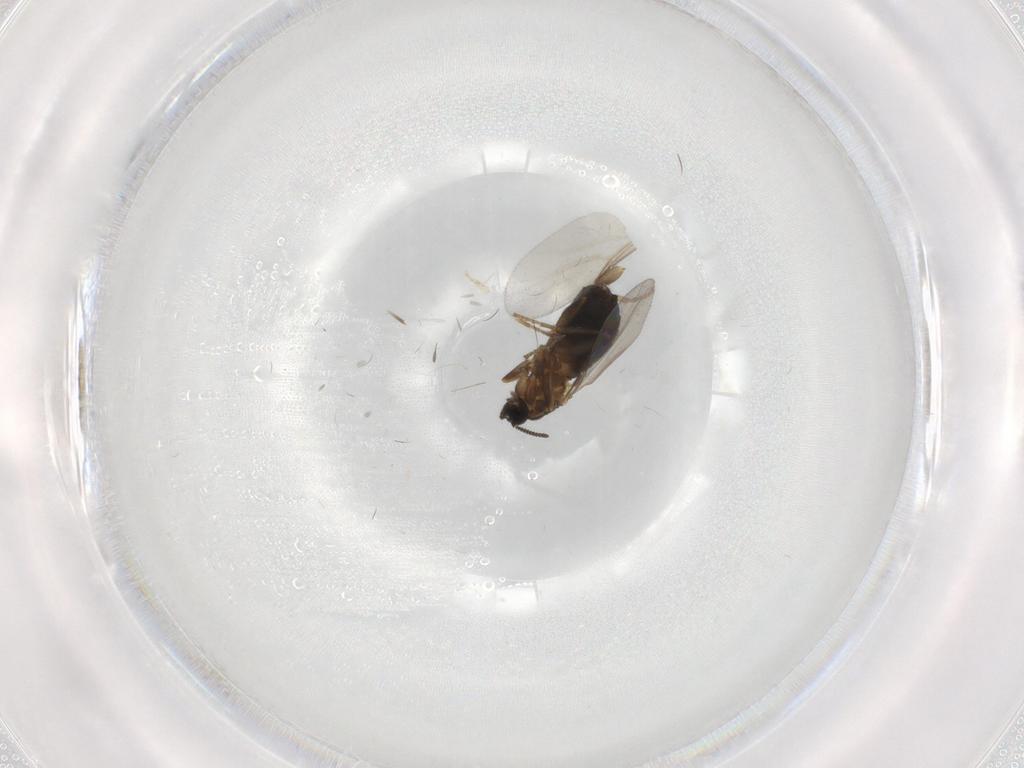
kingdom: Animalia
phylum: Arthropoda
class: Insecta
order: Diptera
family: Scatopsidae
